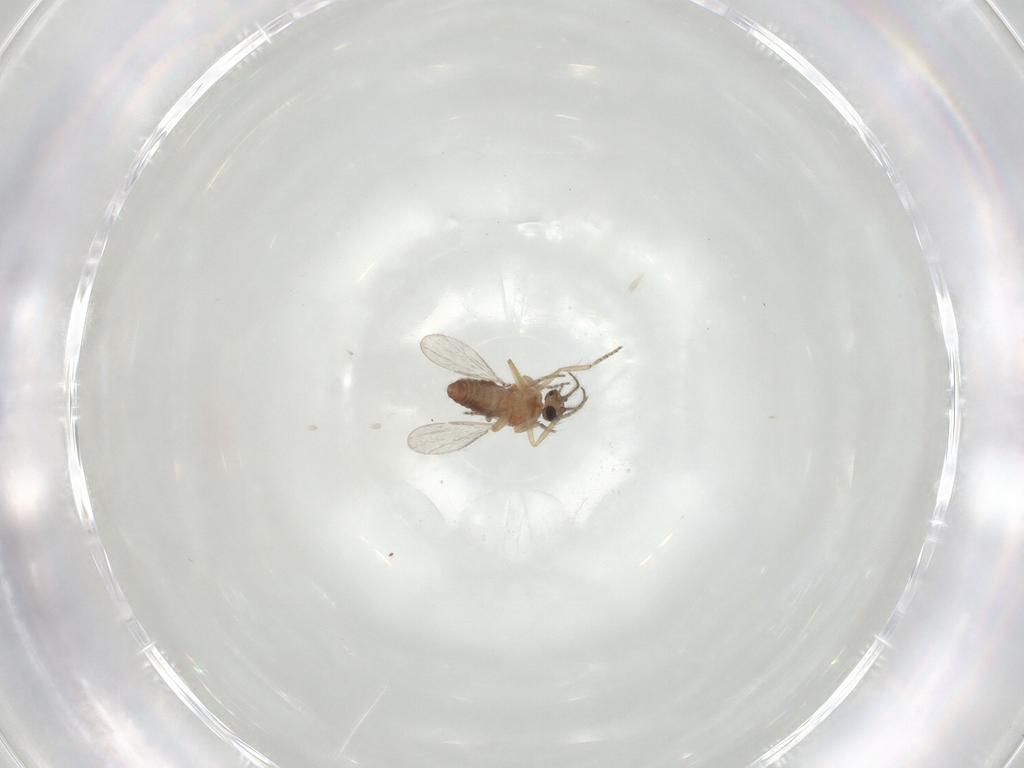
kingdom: Animalia
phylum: Arthropoda
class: Insecta
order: Diptera
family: Ceratopogonidae
